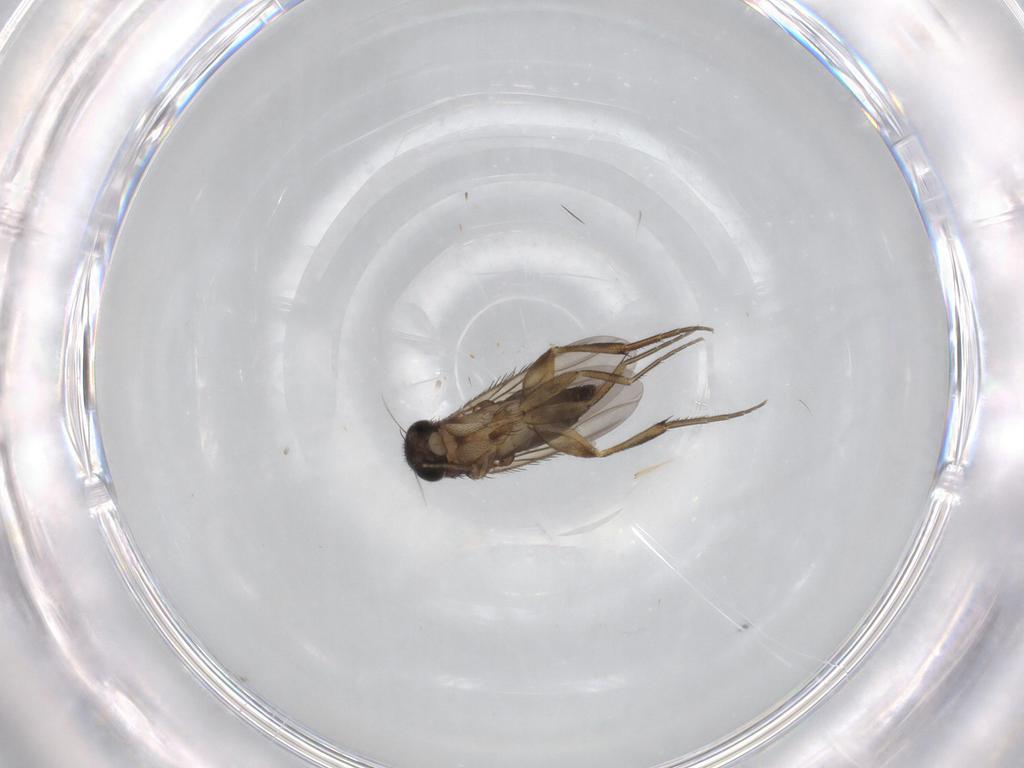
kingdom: Animalia
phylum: Arthropoda
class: Insecta
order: Diptera
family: Phoridae
